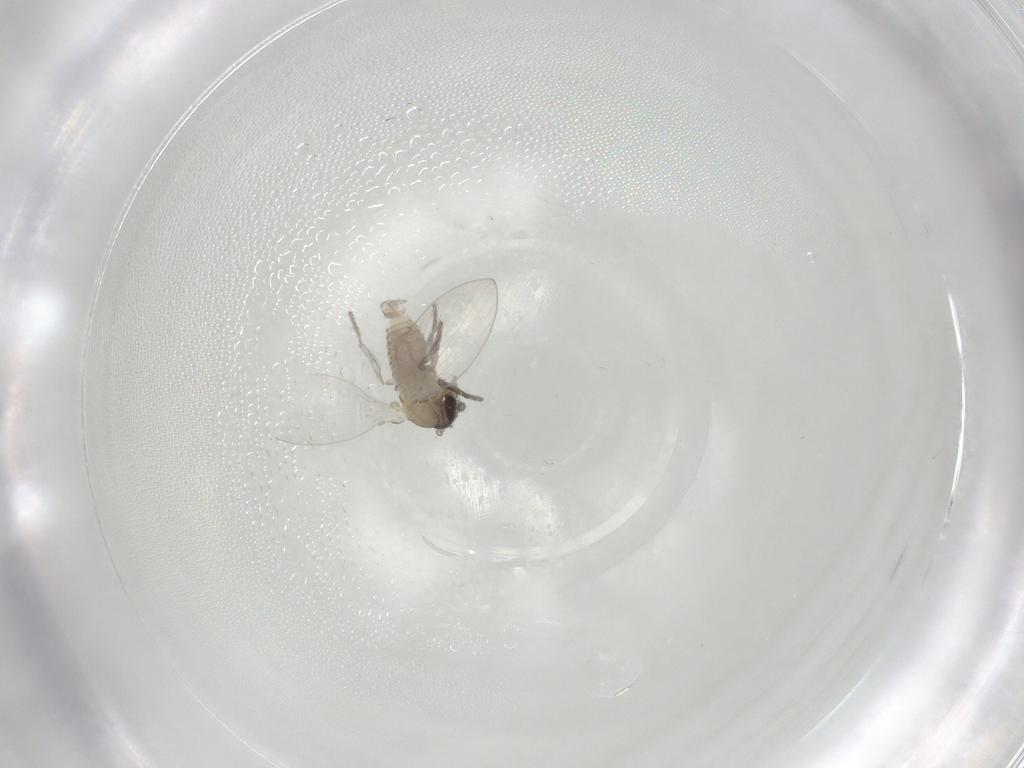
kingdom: Animalia
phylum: Arthropoda
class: Insecta
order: Diptera
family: Psychodidae
